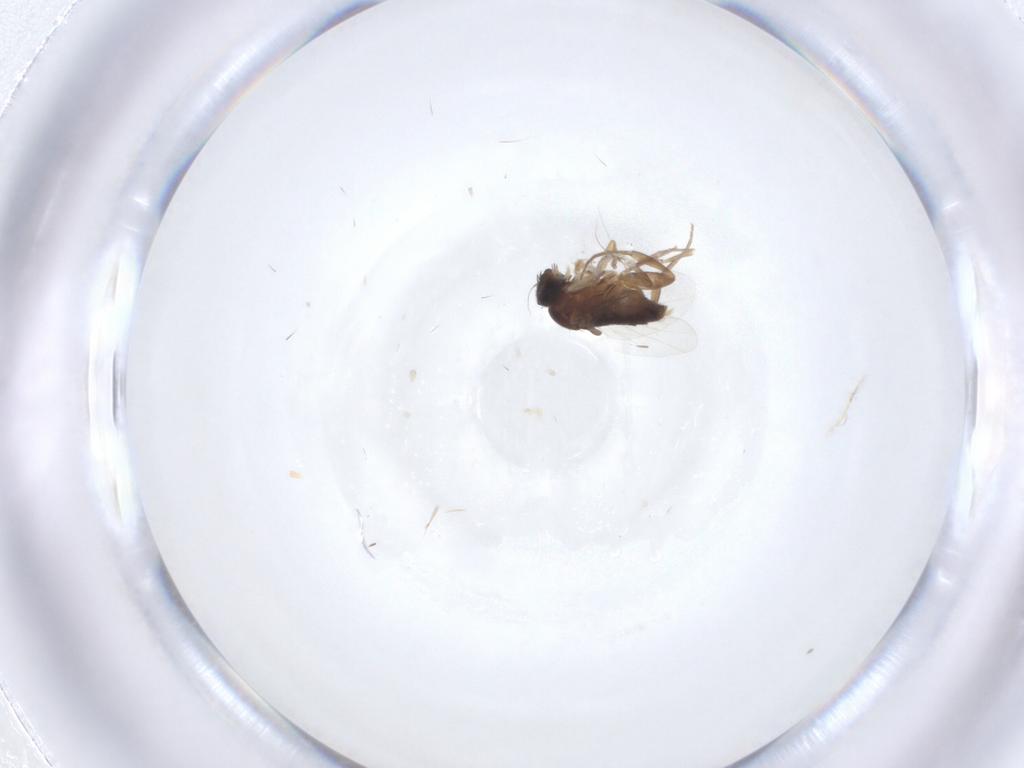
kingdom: Animalia
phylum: Arthropoda
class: Insecta
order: Diptera
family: Phoridae
